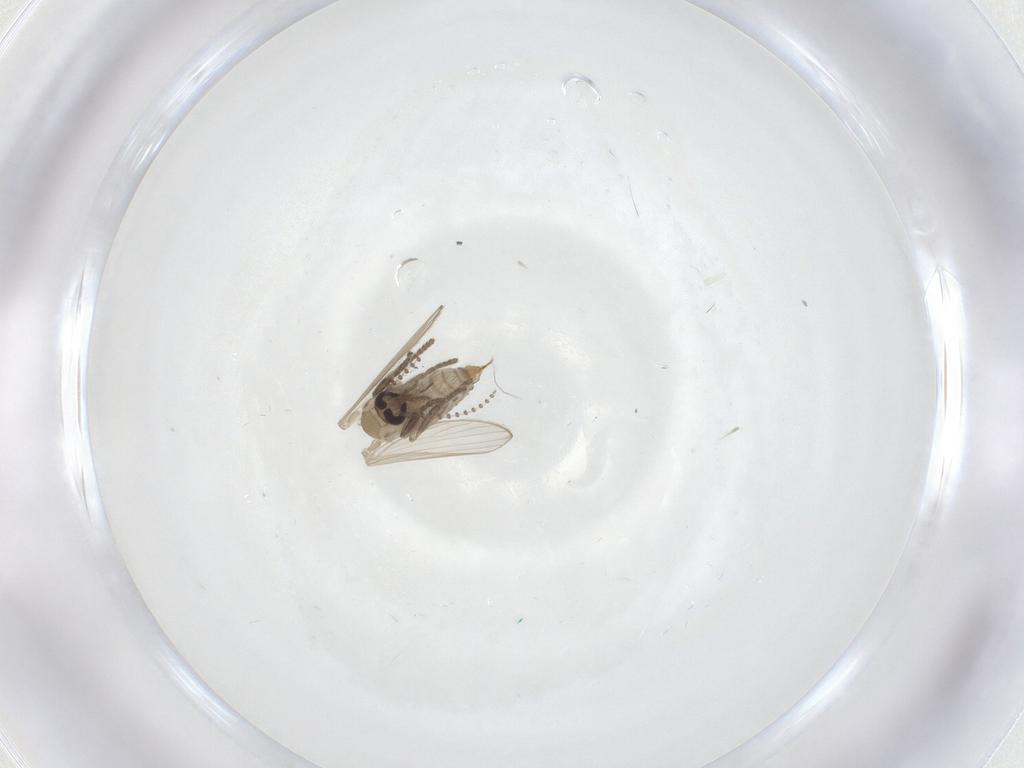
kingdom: Animalia
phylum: Arthropoda
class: Insecta
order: Diptera
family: Psychodidae
